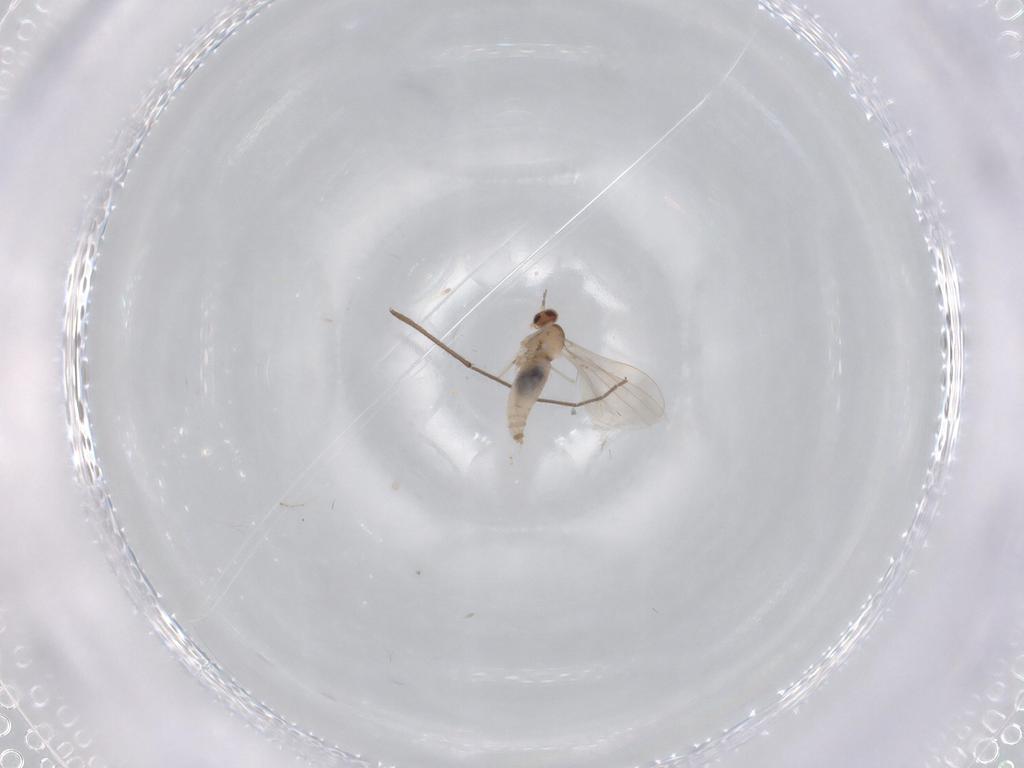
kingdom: Animalia
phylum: Arthropoda
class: Insecta
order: Diptera
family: Cecidomyiidae
